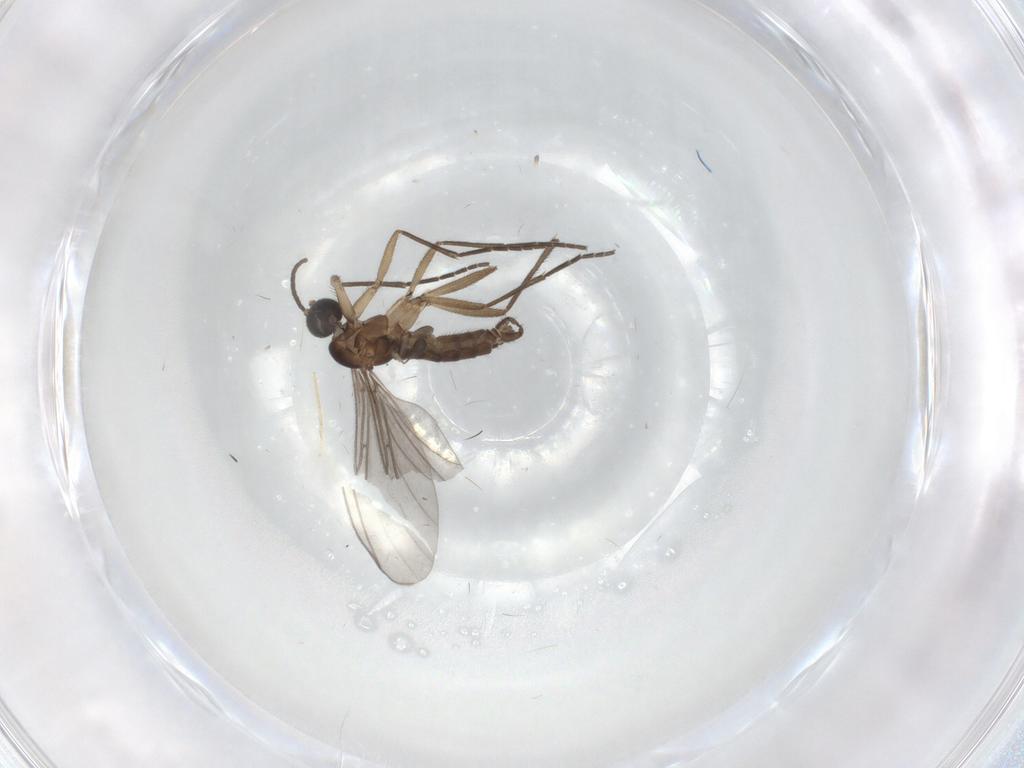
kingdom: Animalia
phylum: Arthropoda
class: Insecta
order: Diptera
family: Sciaridae
